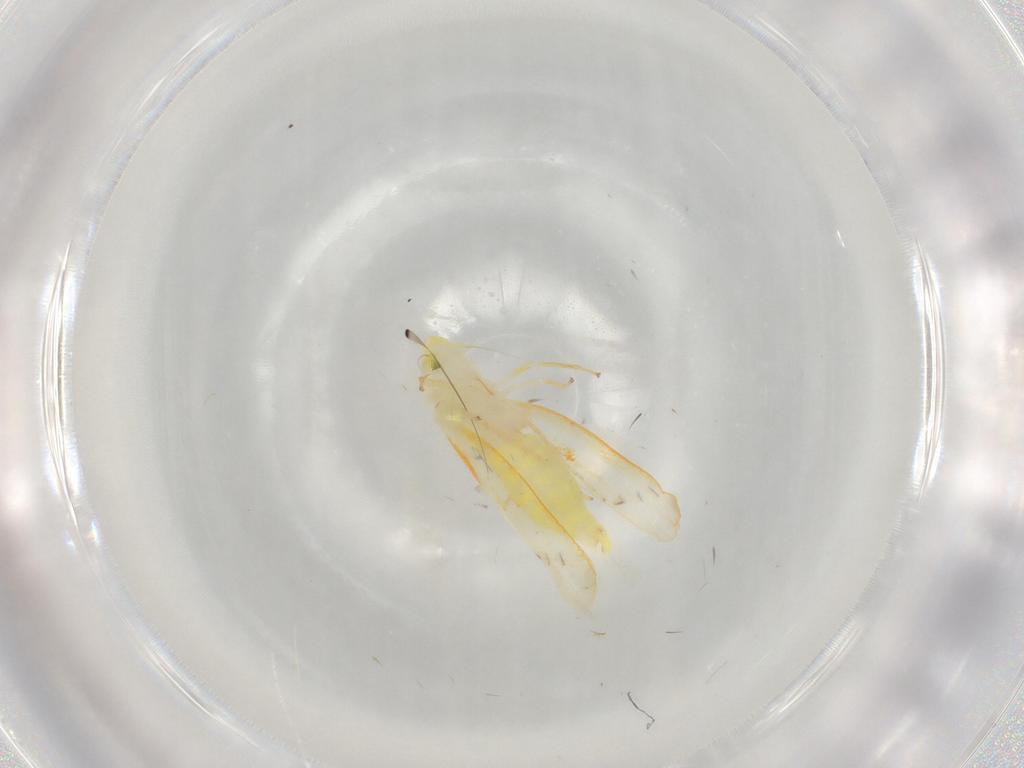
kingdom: Animalia
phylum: Arthropoda
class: Insecta
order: Hemiptera
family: Cicadellidae
